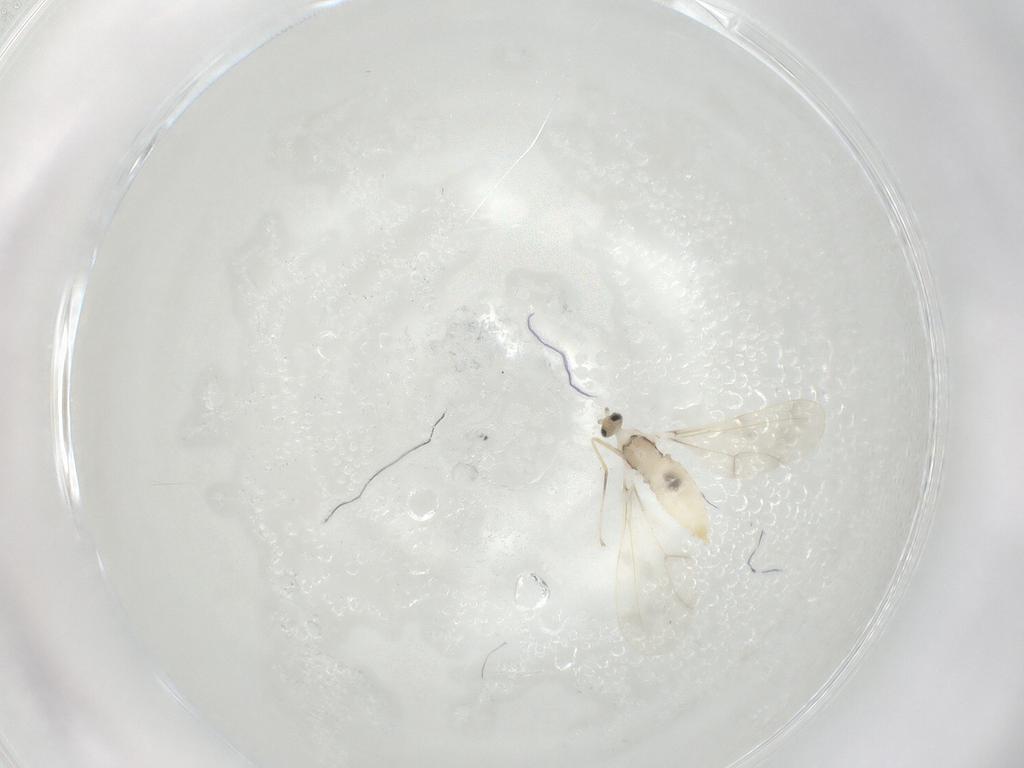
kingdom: Animalia
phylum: Arthropoda
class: Insecta
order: Diptera
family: Cecidomyiidae
